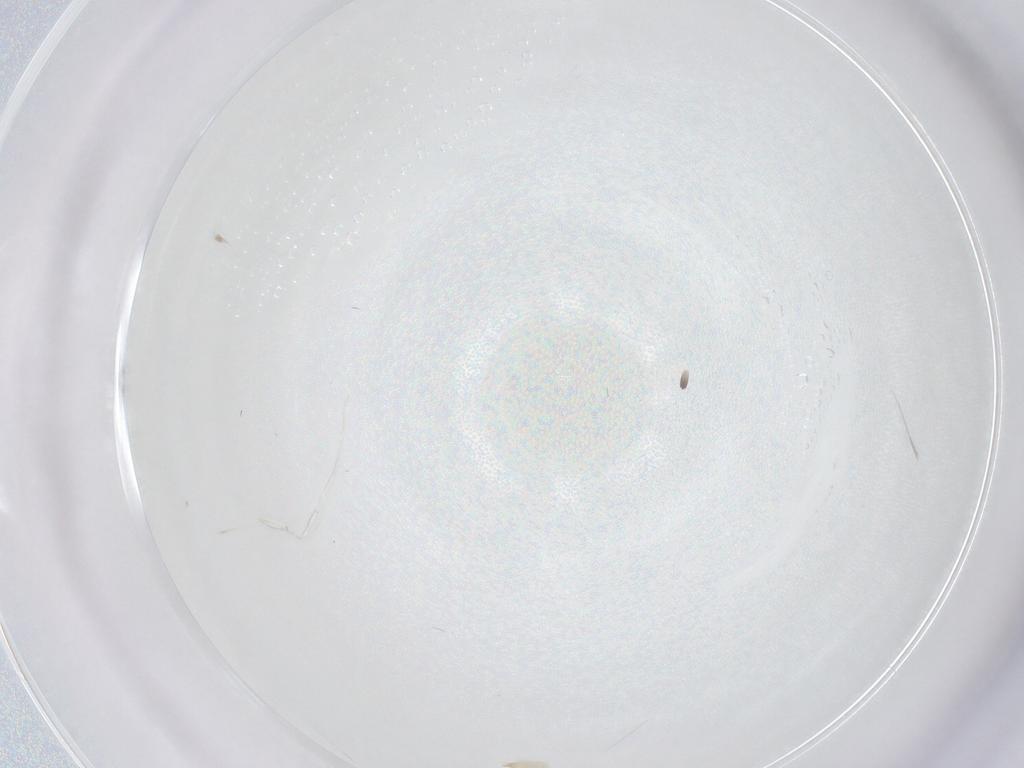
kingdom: Animalia
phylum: Arthropoda
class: Arachnida
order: Trombidiformes
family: Cunaxidae
